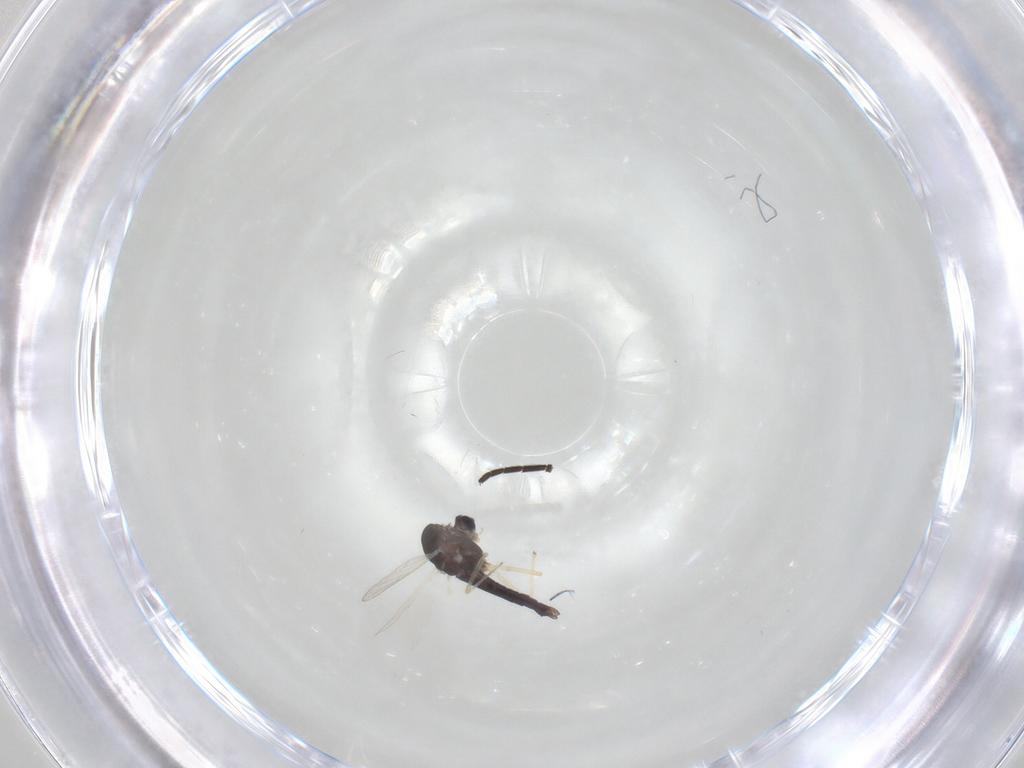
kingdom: Animalia
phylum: Arthropoda
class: Insecta
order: Diptera
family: Chironomidae
